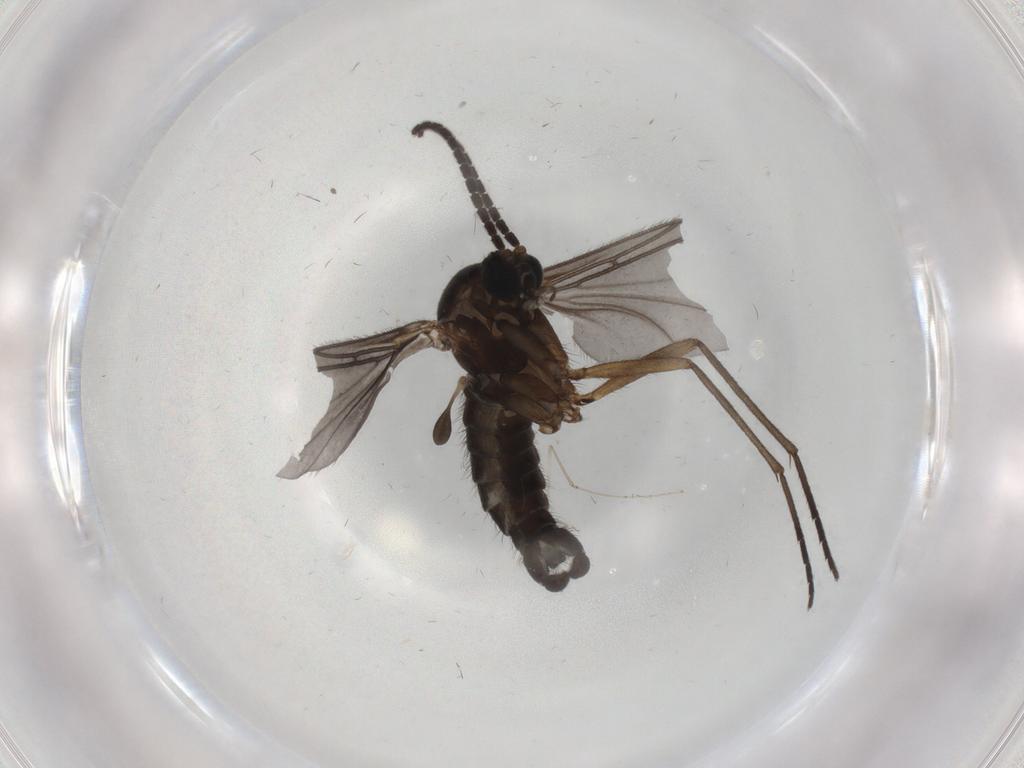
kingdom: Animalia
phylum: Arthropoda
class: Insecta
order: Diptera
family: Sciaridae
